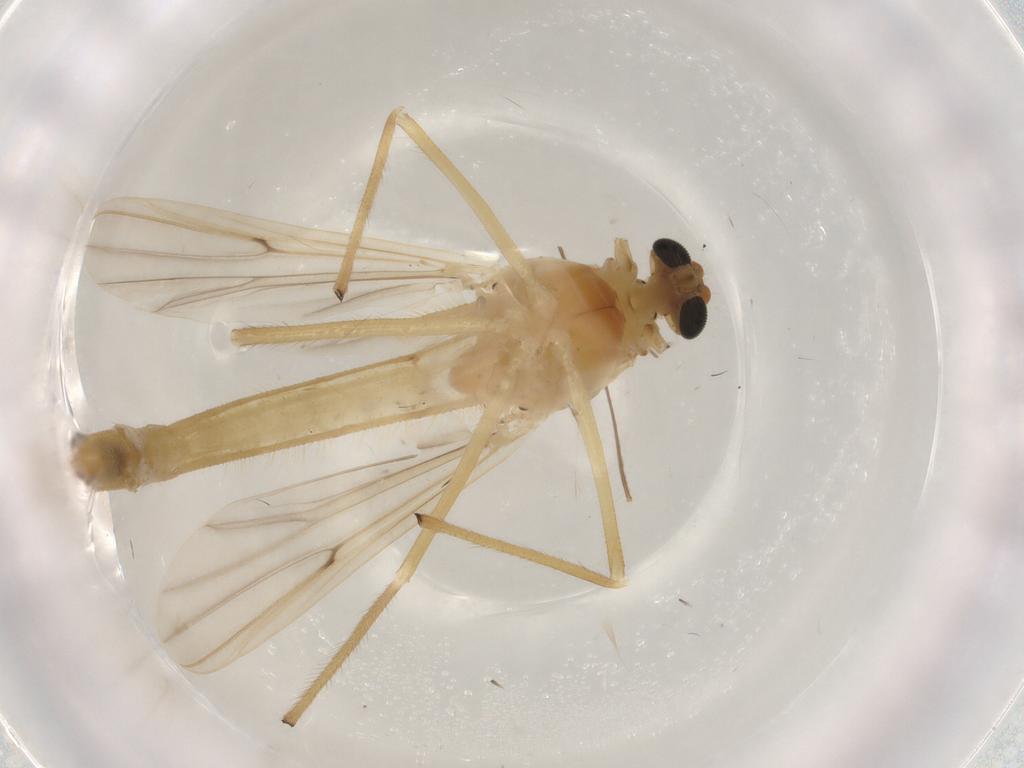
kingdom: Animalia
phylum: Arthropoda
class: Insecta
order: Diptera
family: Chironomidae
